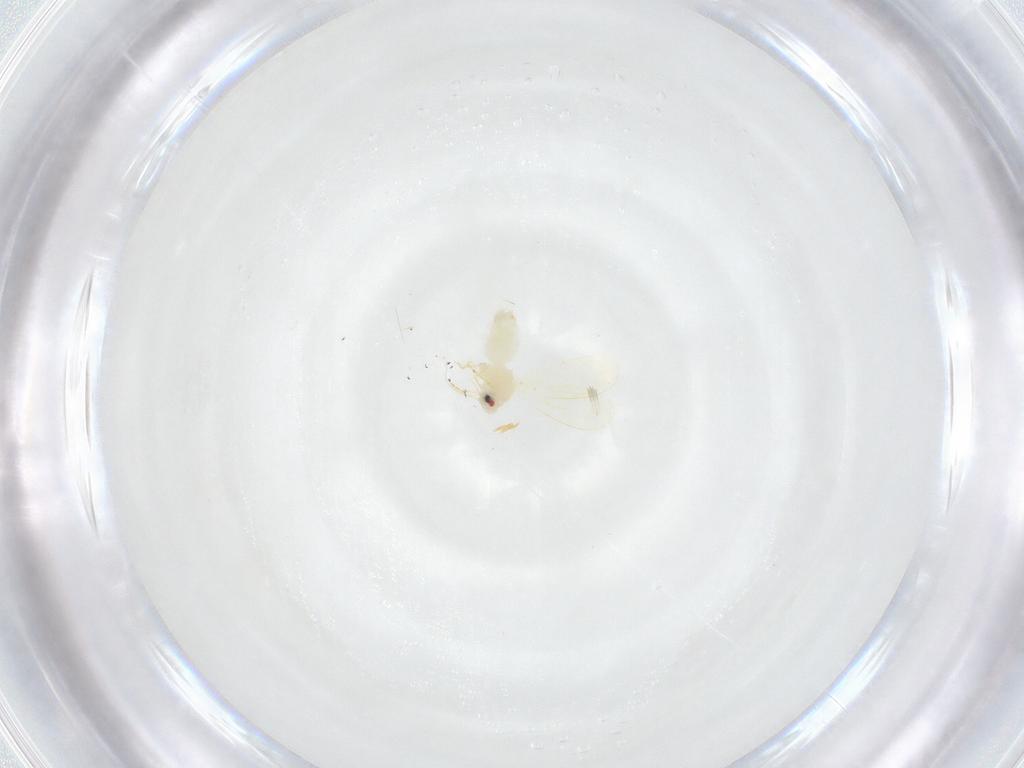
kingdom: Animalia
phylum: Arthropoda
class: Insecta
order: Hemiptera
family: Aleyrodidae
